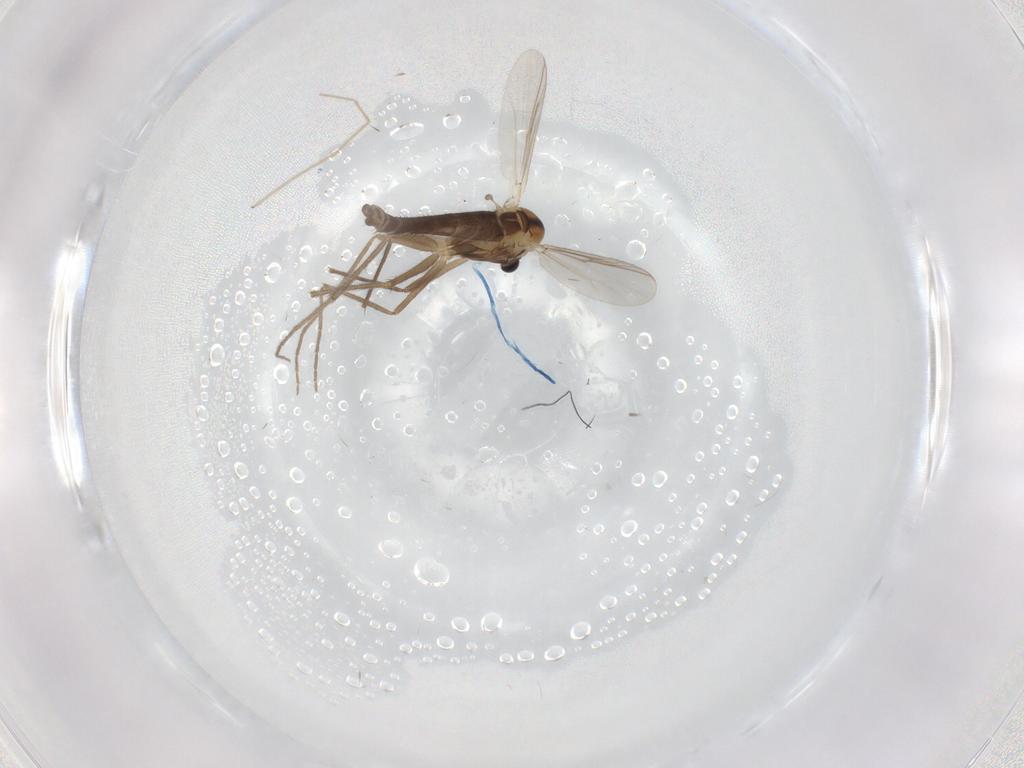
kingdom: Animalia
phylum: Arthropoda
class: Insecta
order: Diptera
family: Chironomidae
